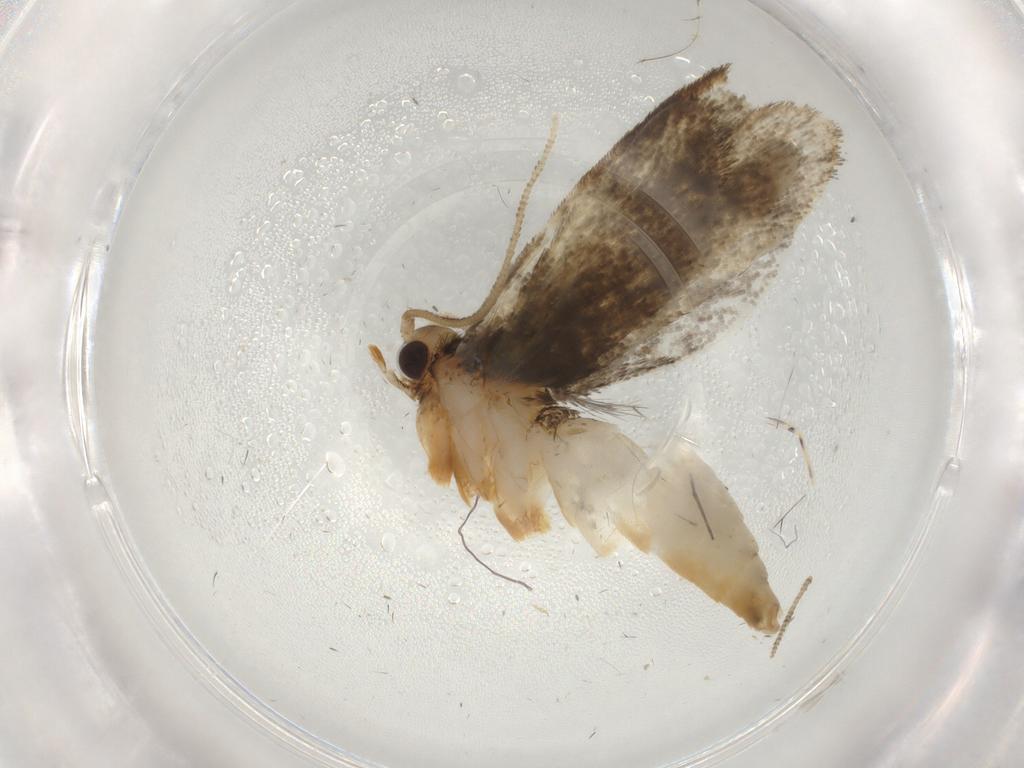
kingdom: Animalia
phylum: Arthropoda
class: Insecta
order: Lepidoptera
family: Tineidae
